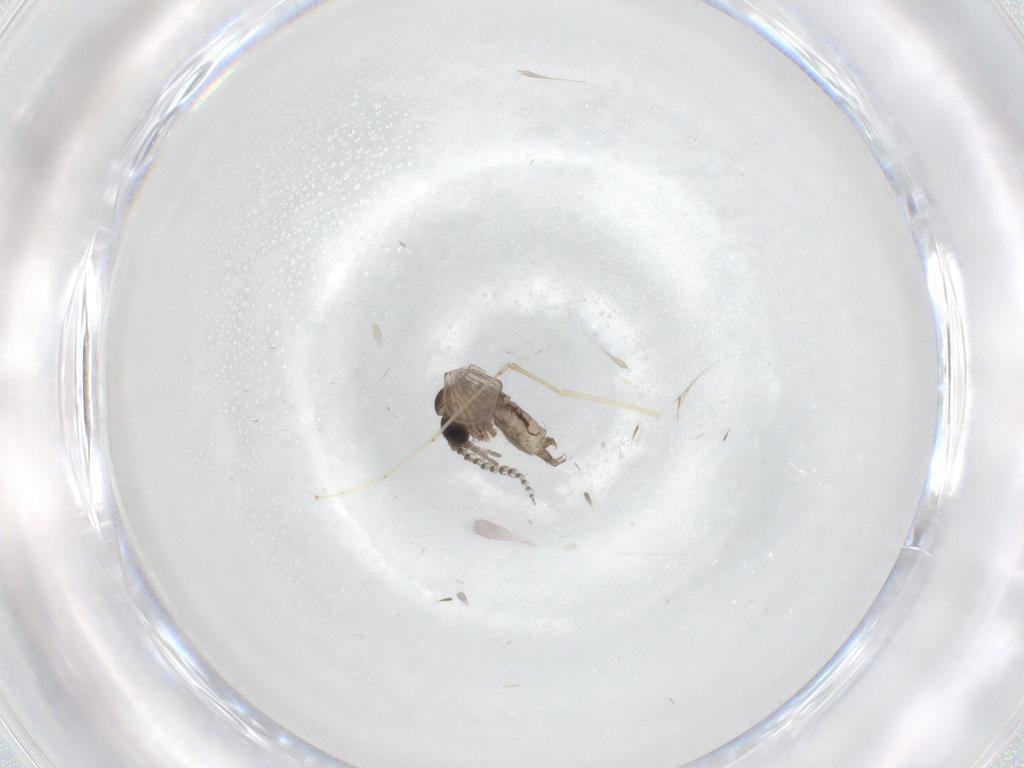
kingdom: Animalia
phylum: Arthropoda
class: Insecta
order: Diptera
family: Psychodidae
